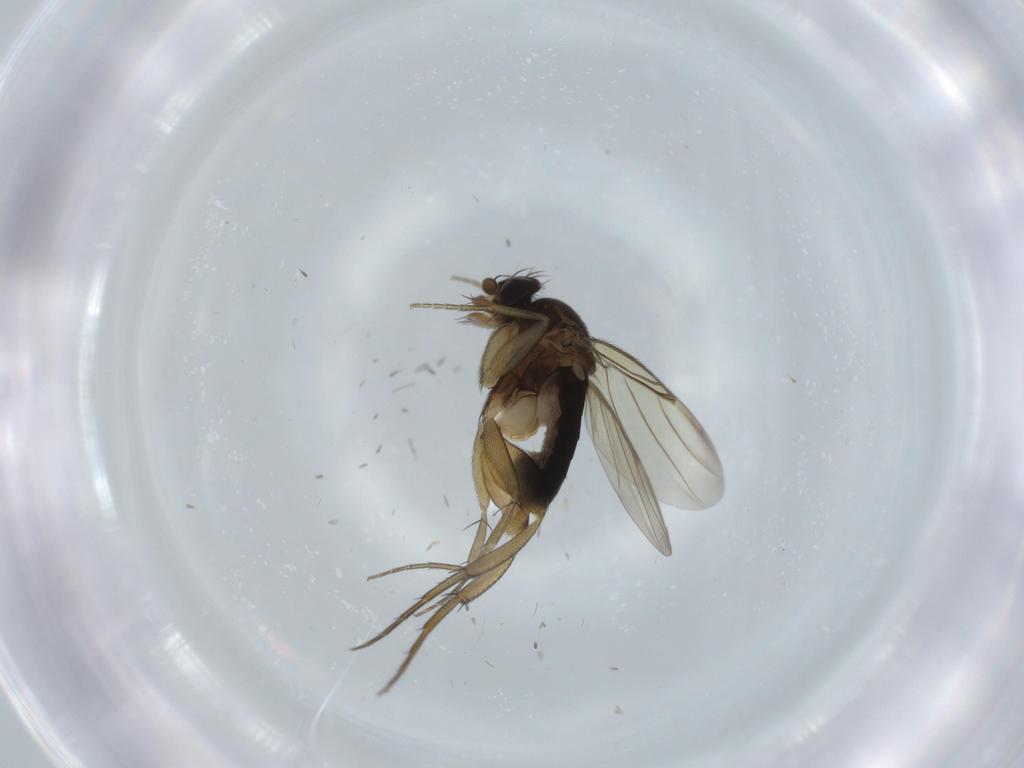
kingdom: Animalia
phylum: Arthropoda
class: Insecta
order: Diptera
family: Phoridae
